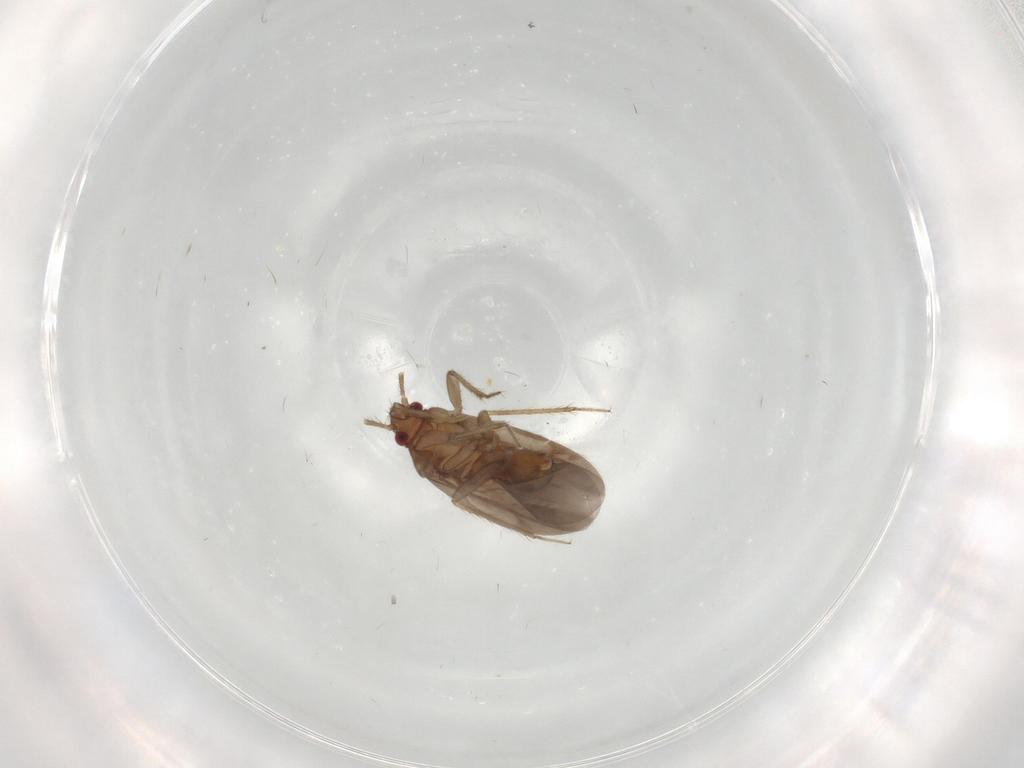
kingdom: Animalia
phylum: Arthropoda
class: Insecta
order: Hemiptera
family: Ceratocombidae
